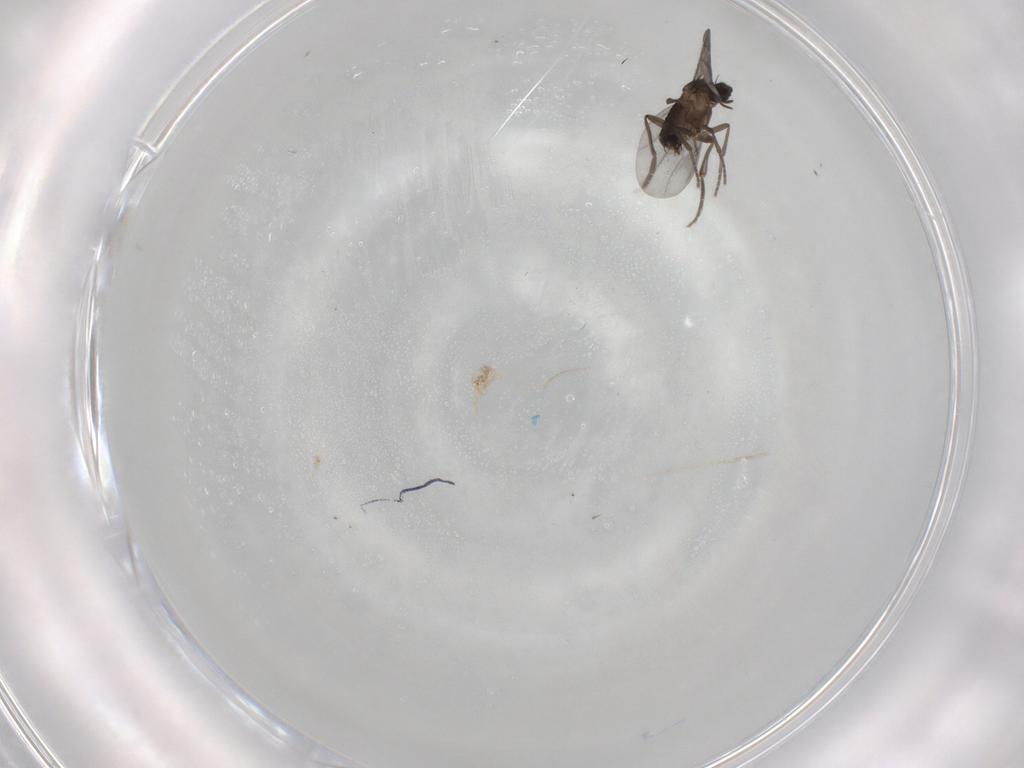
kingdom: Animalia
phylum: Arthropoda
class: Insecta
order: Diptera
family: Phoridae
